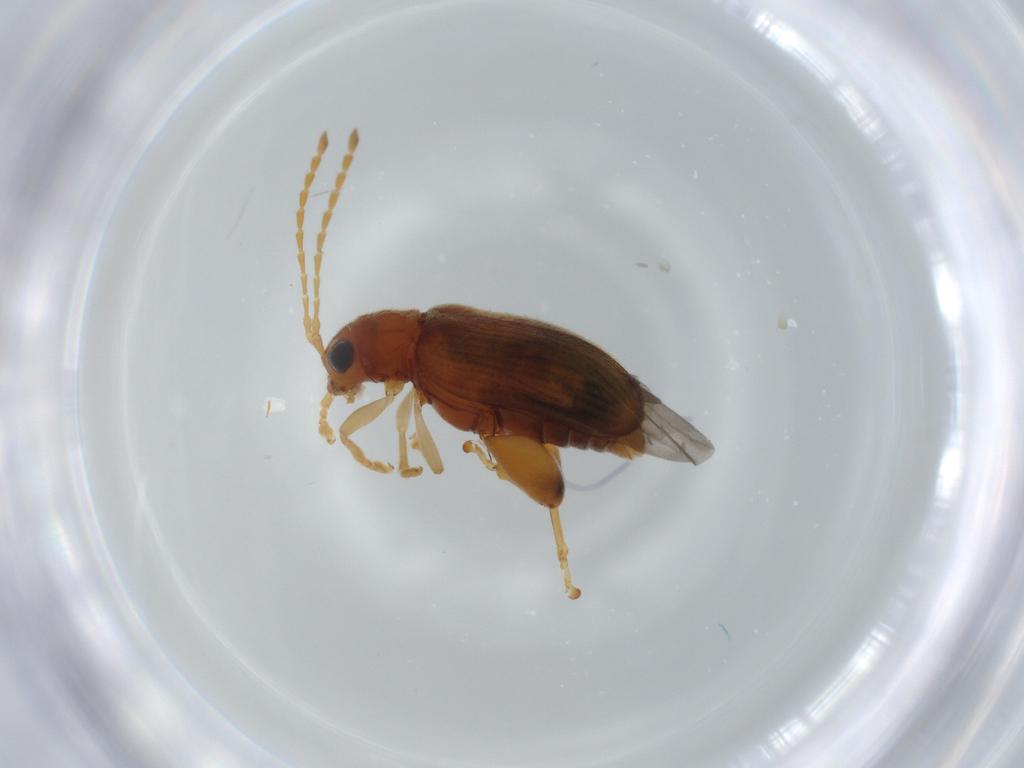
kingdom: Animalia
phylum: Arthropoda
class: Insecta
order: Coleoptera
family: Chrysomelidae
